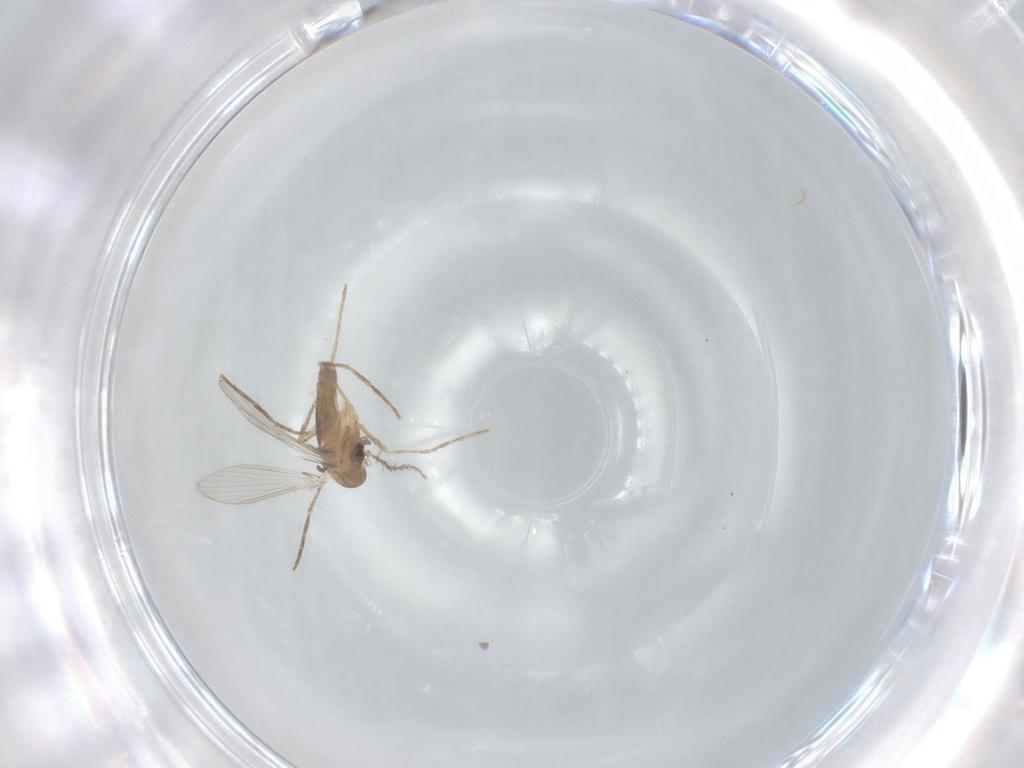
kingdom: Animalia
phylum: Arthropoda
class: Insecta
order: Diptera
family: Psychodidae
